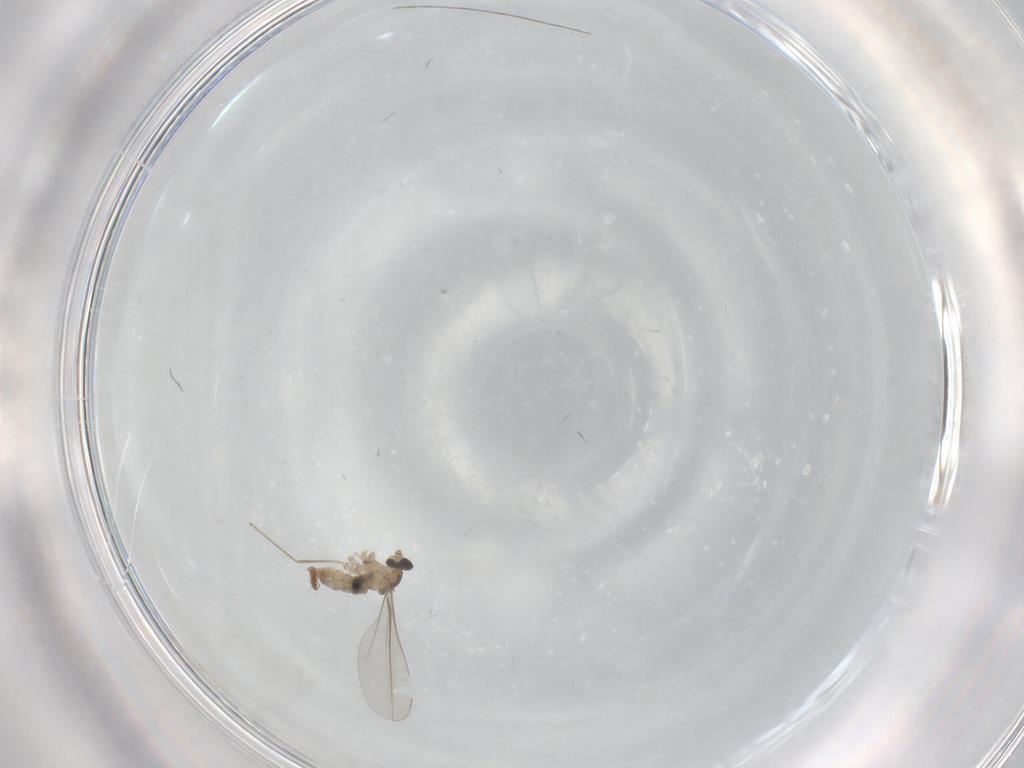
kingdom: Animalia
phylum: Arthropoda
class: Insecta
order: Diptera
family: Cecidomyiidae
